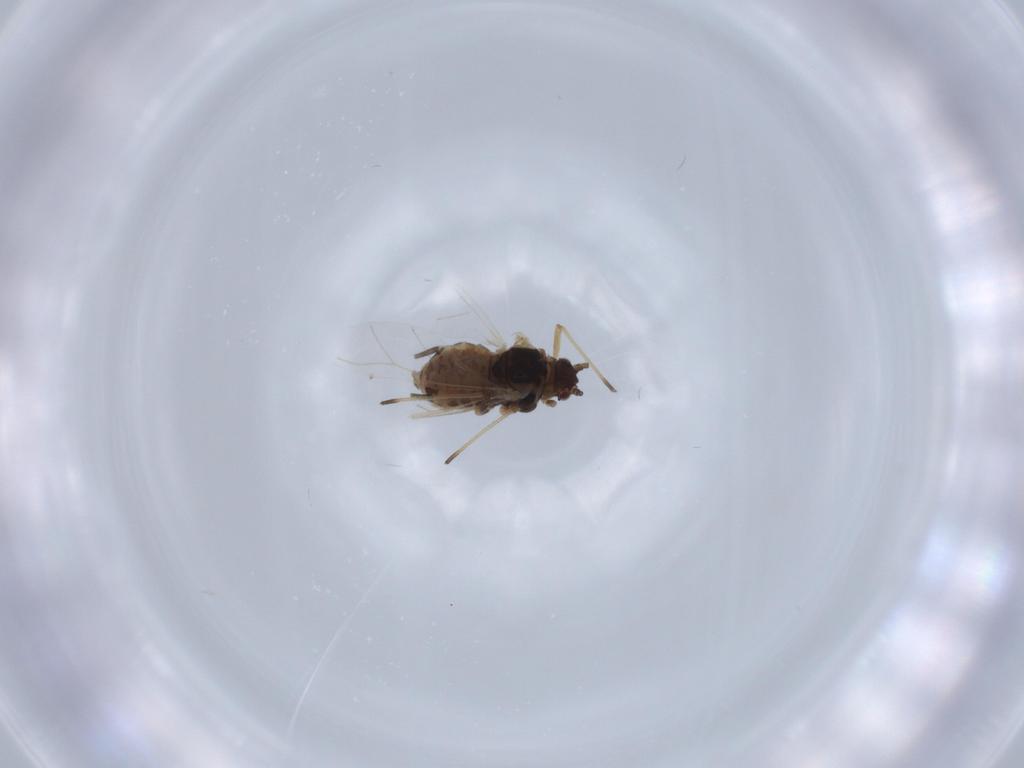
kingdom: Animalia
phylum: Arthropoda
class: Insecta
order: Hemiptera
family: Aphididae
